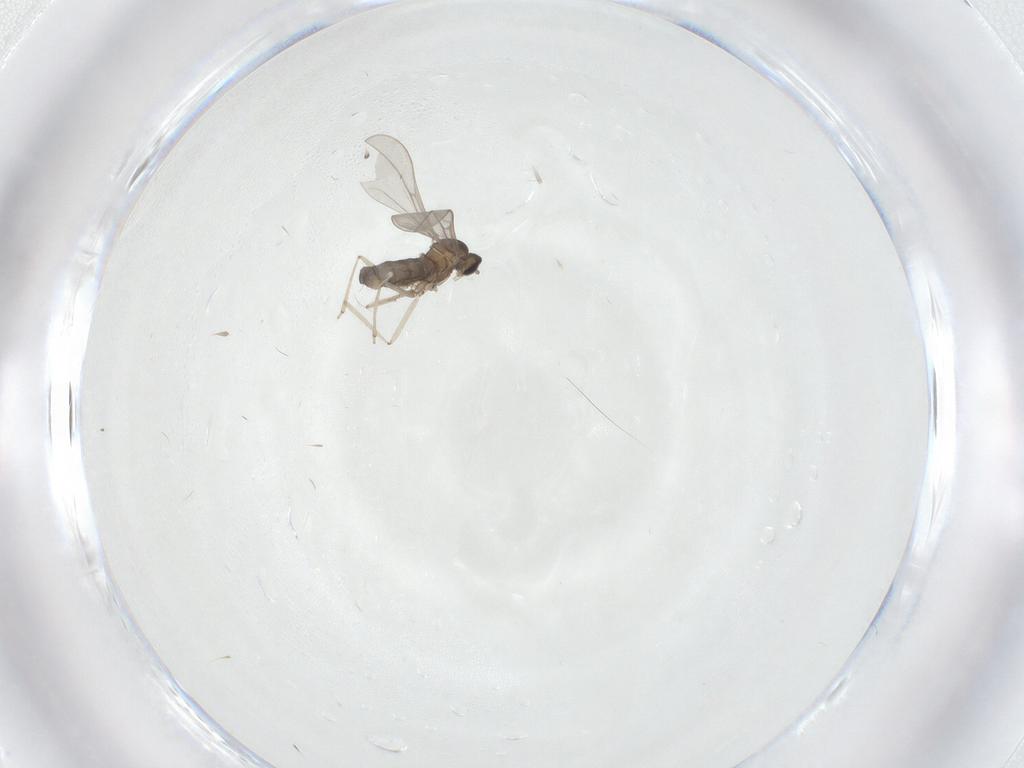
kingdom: Animalia
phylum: Arthropoda
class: Insecta
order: Diptera
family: Cecidomyiidae
